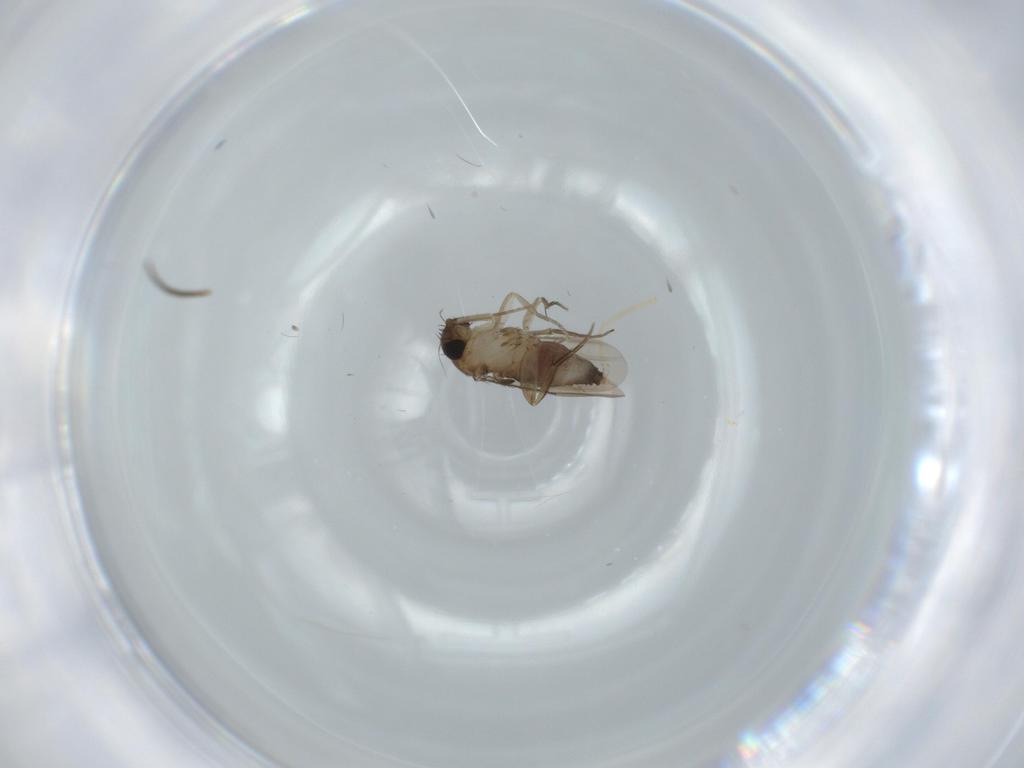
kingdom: Animalia
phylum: Arthropoda
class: Insecta
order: Diptera
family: Phoridae
